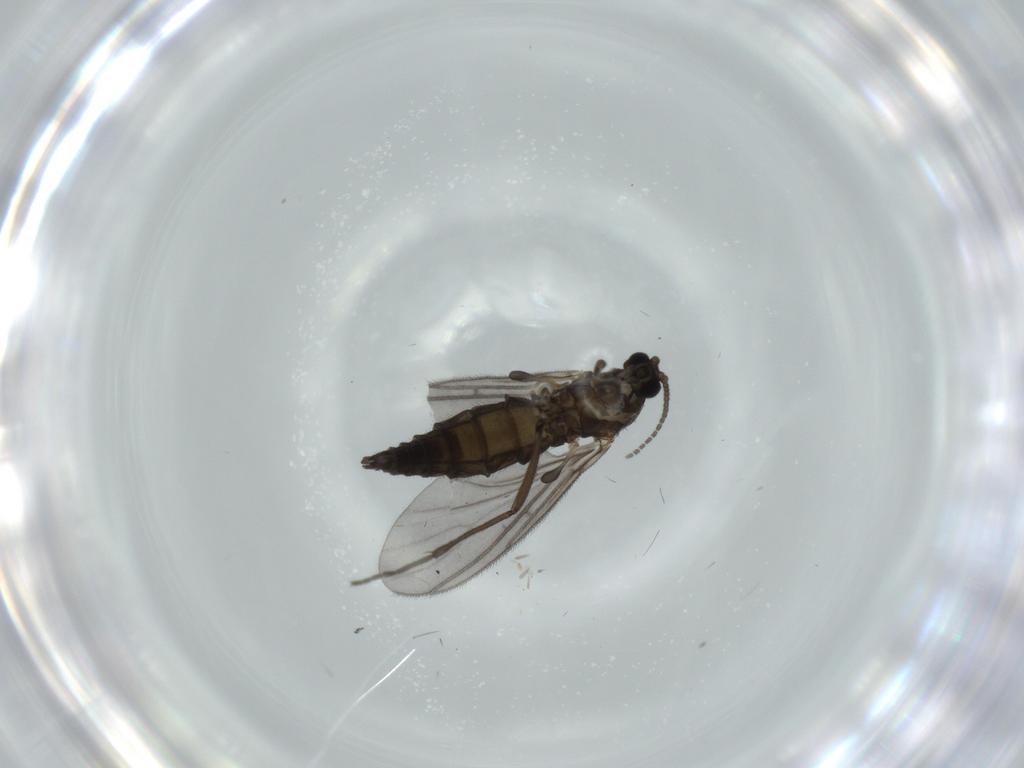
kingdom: Animalia
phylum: Arthropoda
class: Insecta
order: Diptera
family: Sciaridae
